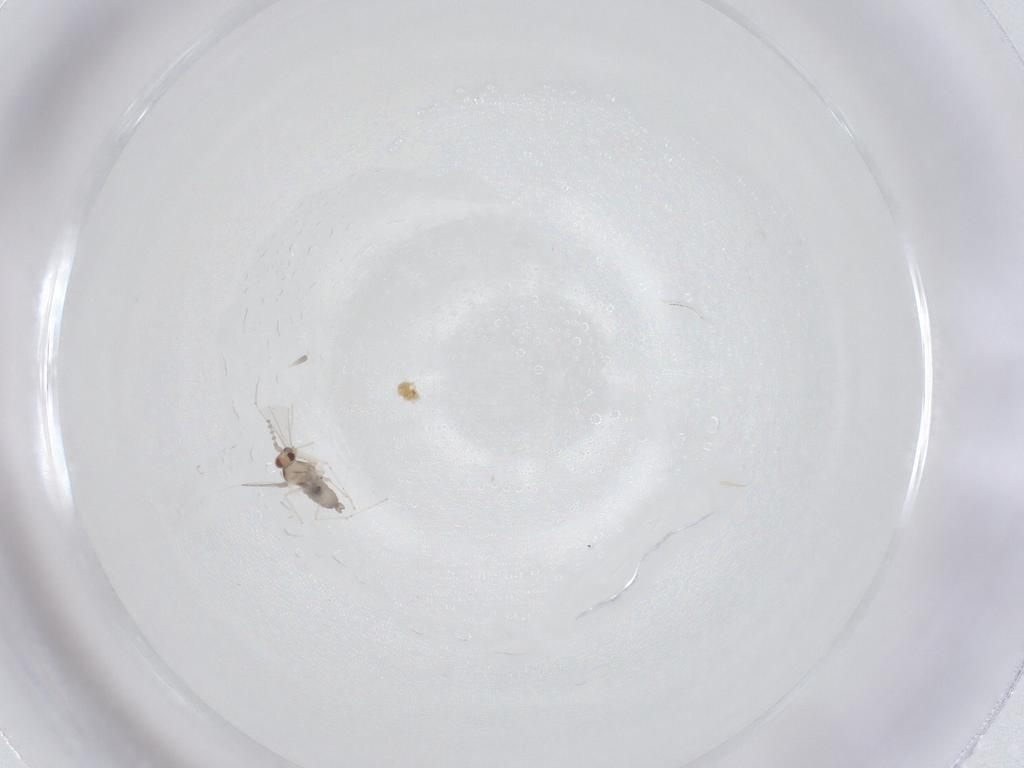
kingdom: Animalia
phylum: Arthropoda
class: Insecta
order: Diptera
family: Cecidomyiidae
